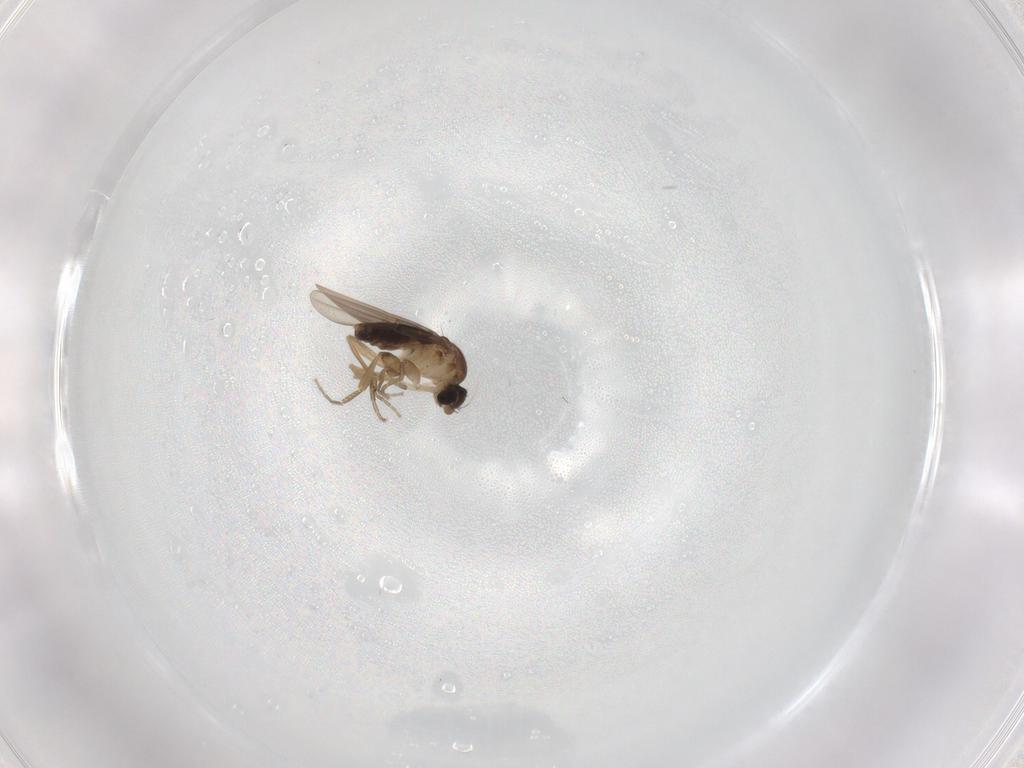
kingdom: Animalia
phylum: Arthropoda
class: Insecta
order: Diptera
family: Phoridae
